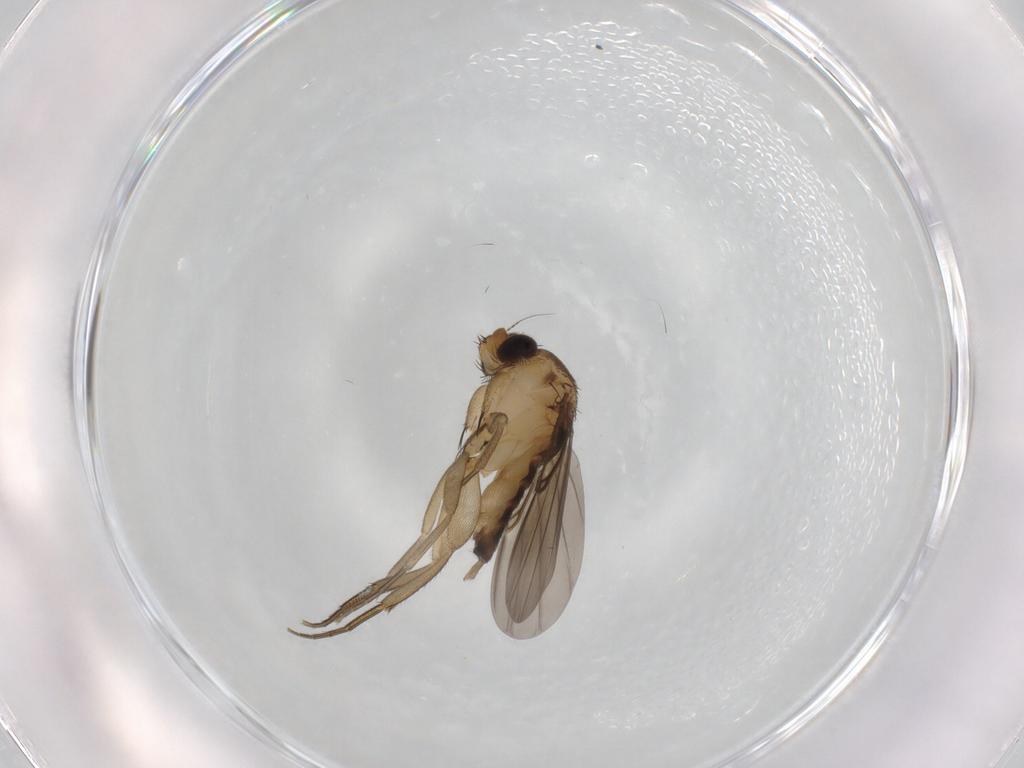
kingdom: Animalia
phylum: Arthropoda
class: Insecta
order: Diptera
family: Phoridae
